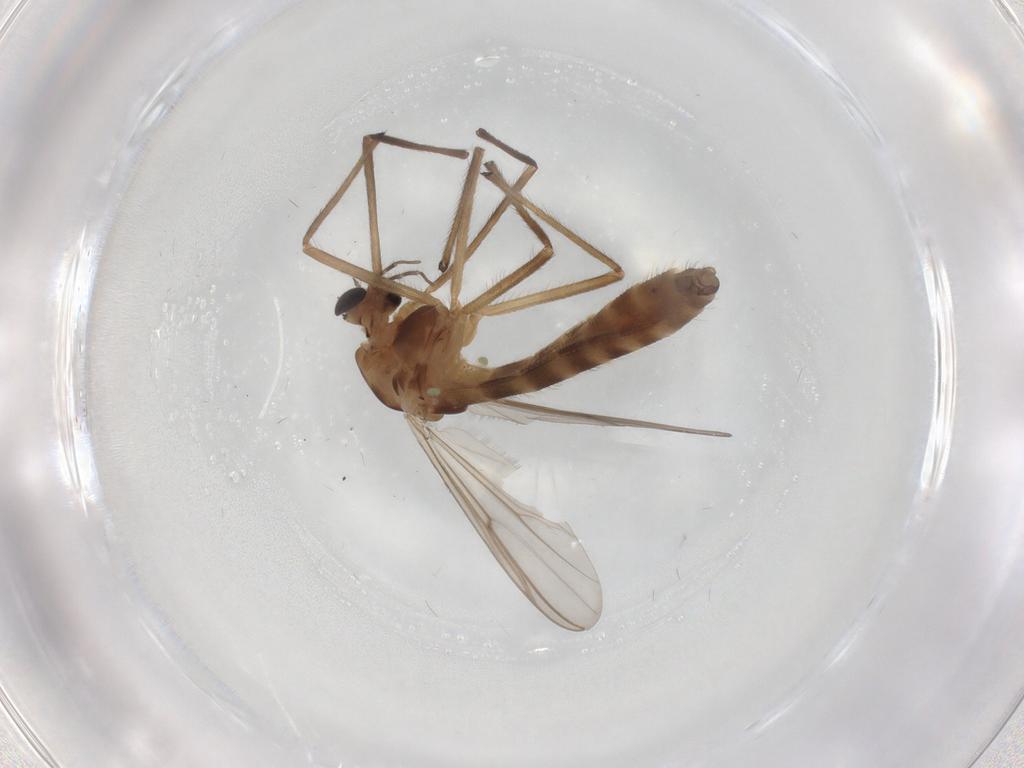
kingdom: Animalia
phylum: Arthropoda
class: Insecta
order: Diptera
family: Chironomidae
